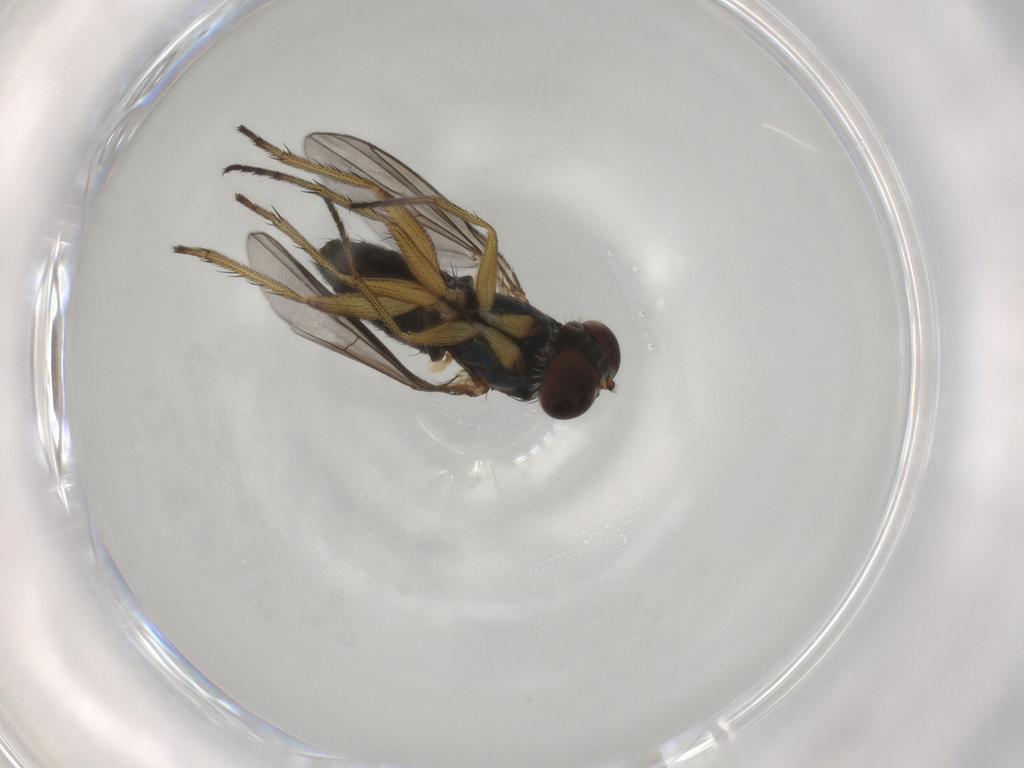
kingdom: Animalia
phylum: Arthropoda
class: Insecta
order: Diptera
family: Dolichopodidae
